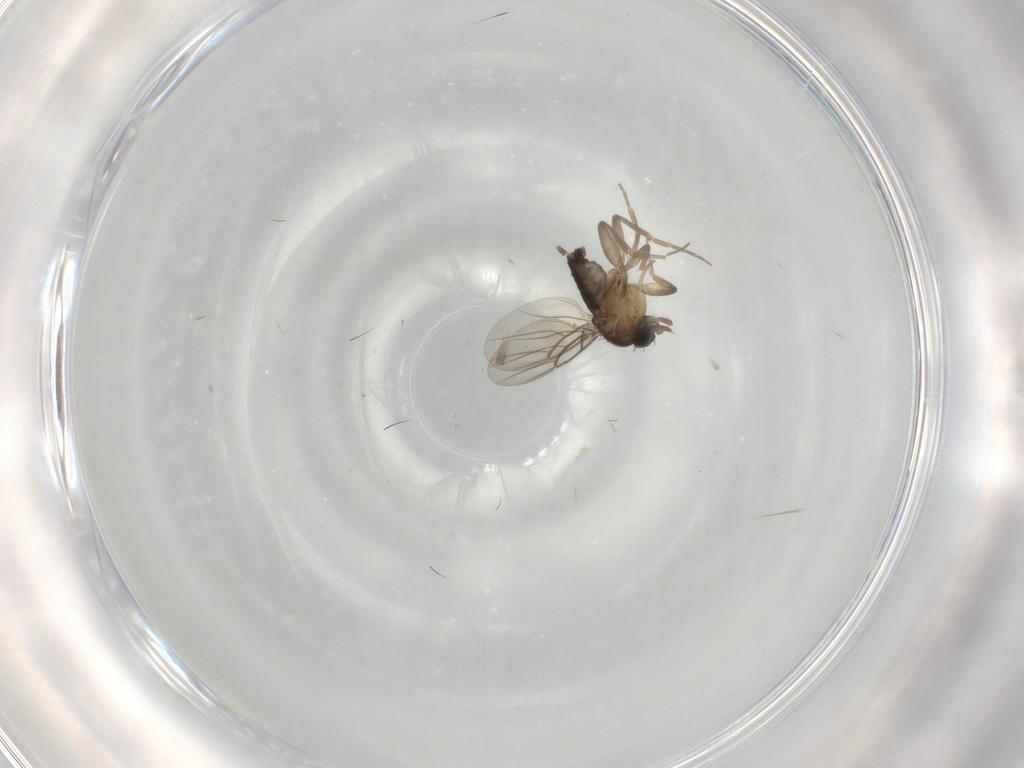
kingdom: Animalia
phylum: Arthropoda
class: Insecta
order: Diptera
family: Phoridae
